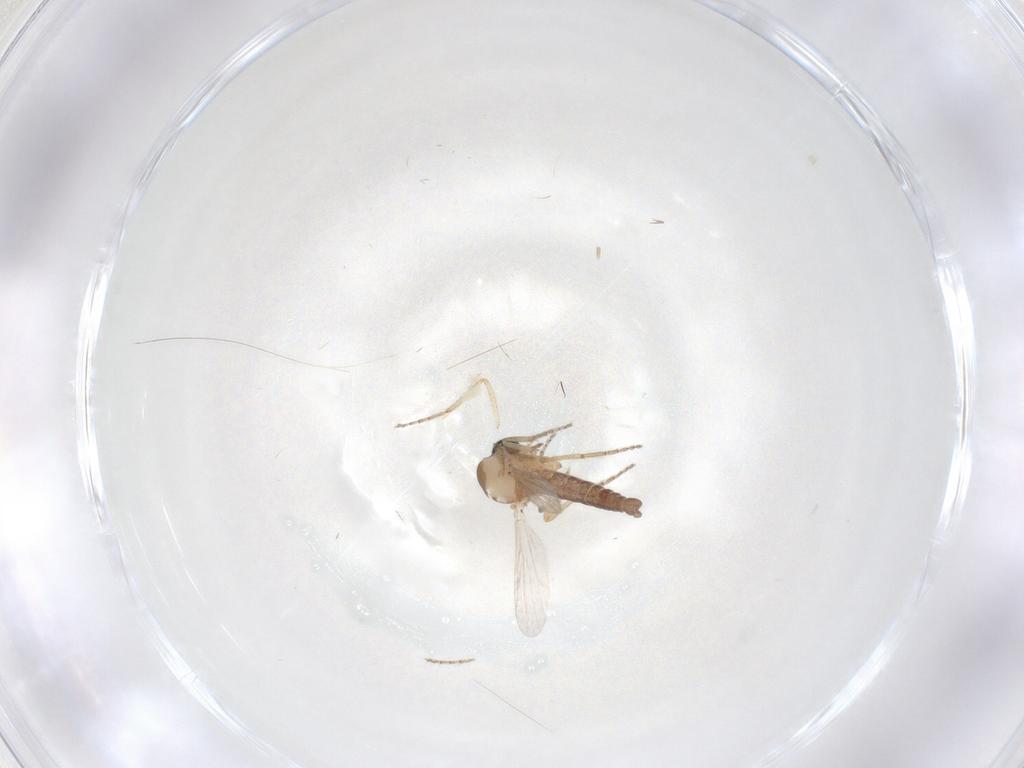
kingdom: Animalia
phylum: Arthropoda
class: Insecta
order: Diptera
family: Ceratopogonidae
